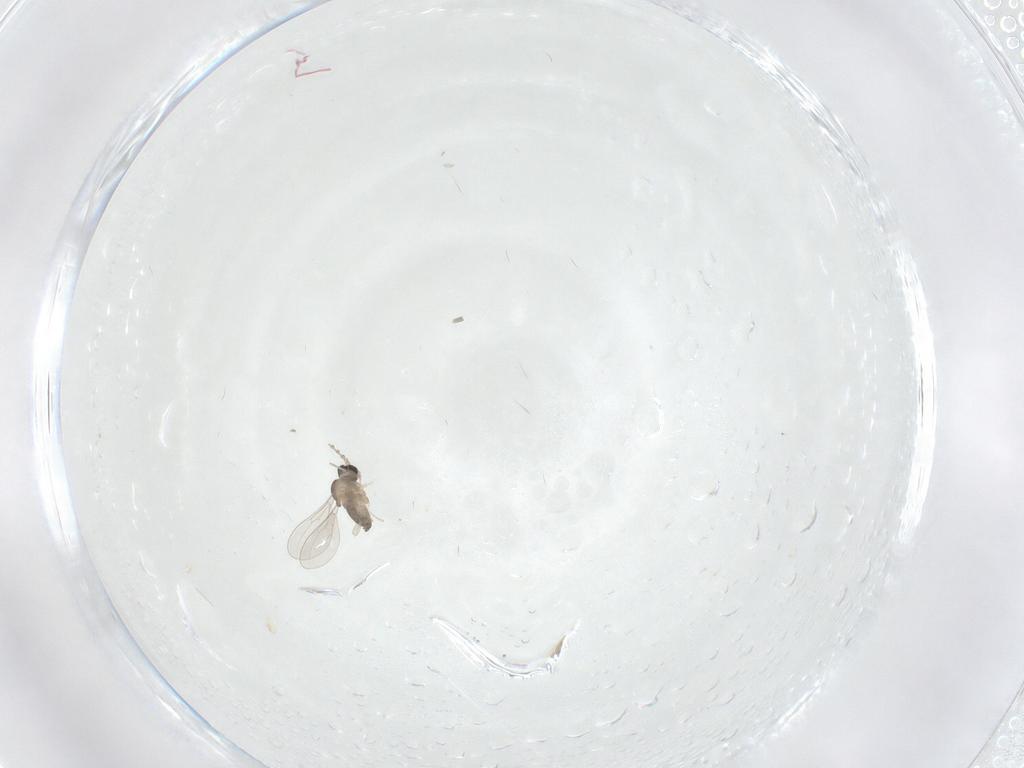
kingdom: Animalia
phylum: Arthropoda
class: Insecta
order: Diptera
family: Cecidomyiidae
